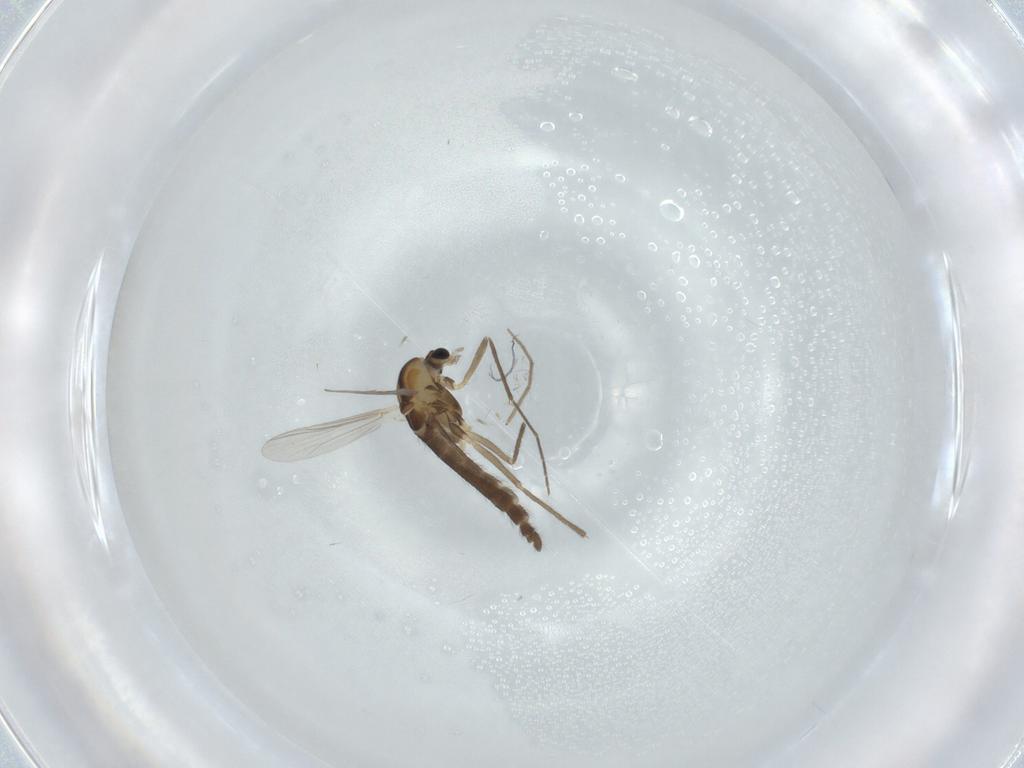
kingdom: Animalia
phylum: Arthropoda
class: Insecta
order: Diptera
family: Chironomidae
